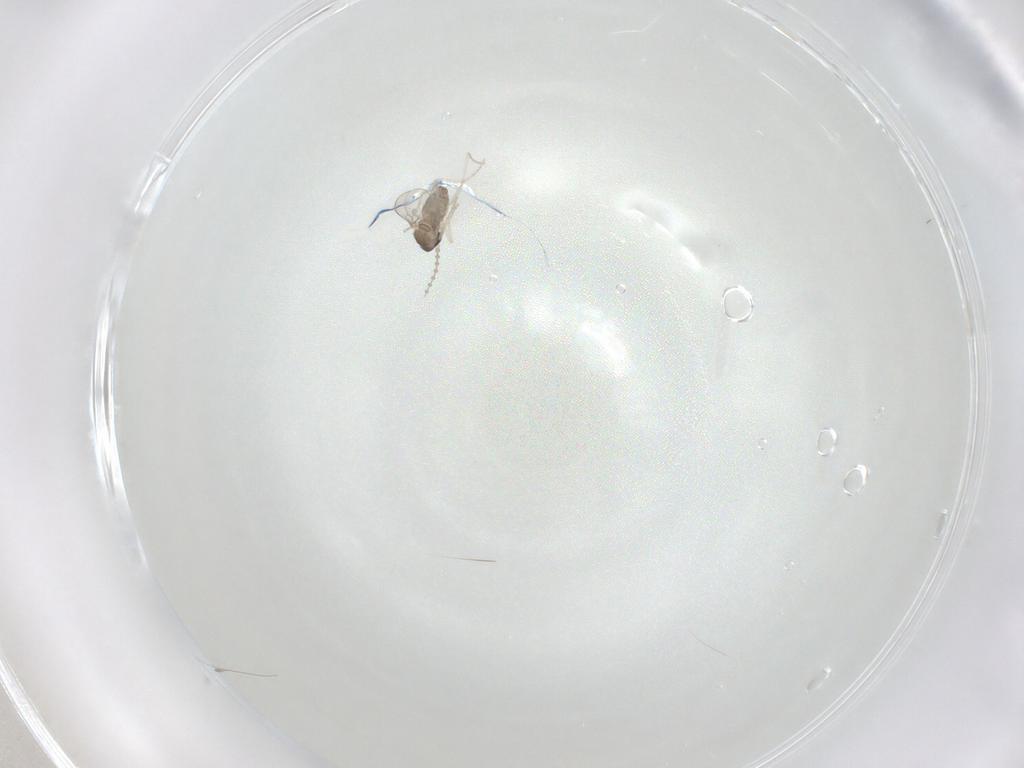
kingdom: Animalia
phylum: Arthropoda
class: Insecta
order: Diptera
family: Cecidomyiidae
